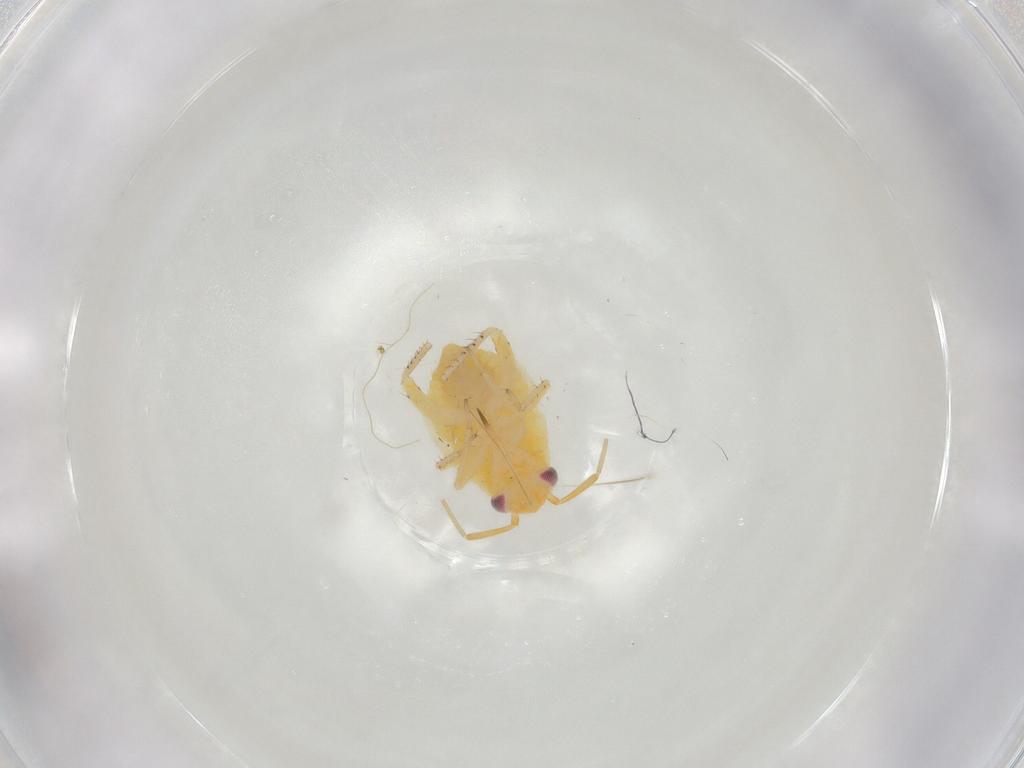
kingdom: Animalia
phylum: Arthropoda
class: Insecta
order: Hemiptera
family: Miridae
